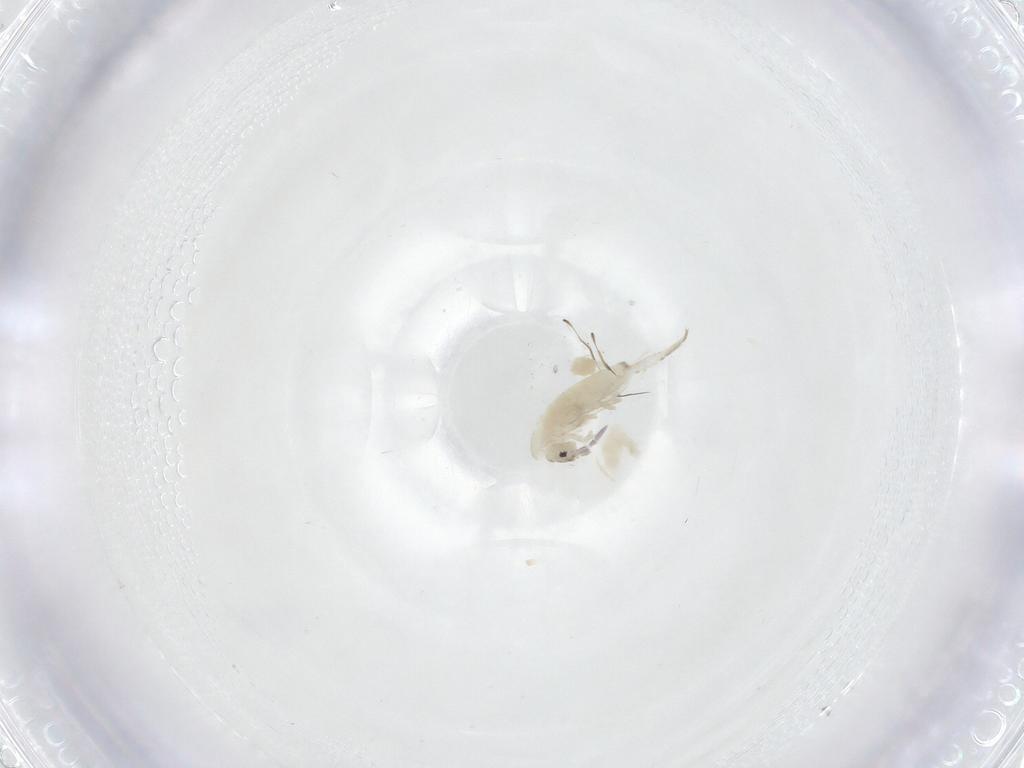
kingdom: Animalia
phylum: Arthropoda
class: Collembola
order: Entomobryomorpha
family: Entomobryidae
